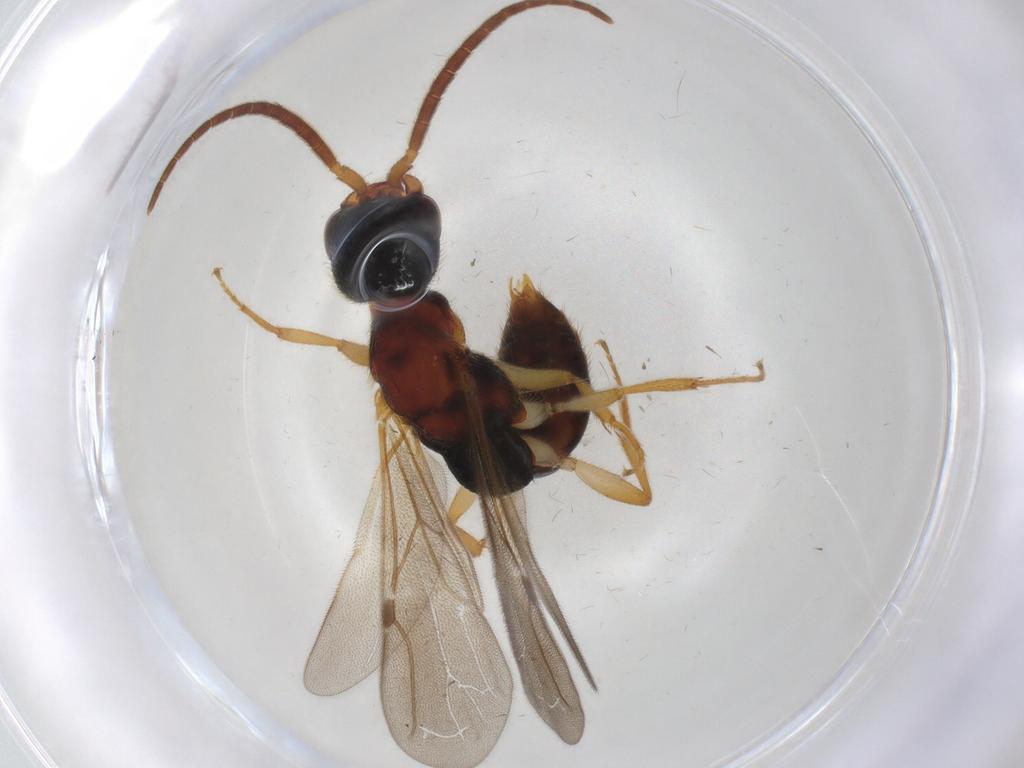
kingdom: Animalia
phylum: Arthropoda
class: Insecta
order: Hymenoptera
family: Bethylidae
